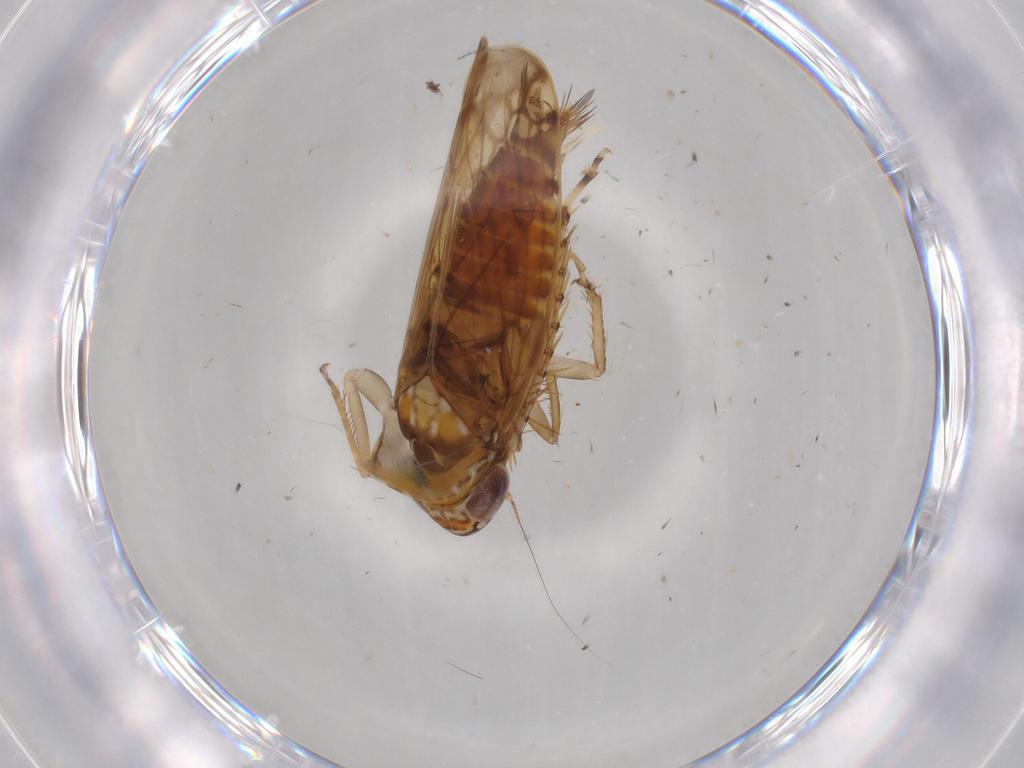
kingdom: Animalia
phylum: Arthropoda
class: Insecta
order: Hemiptera
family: Cicadellidae
